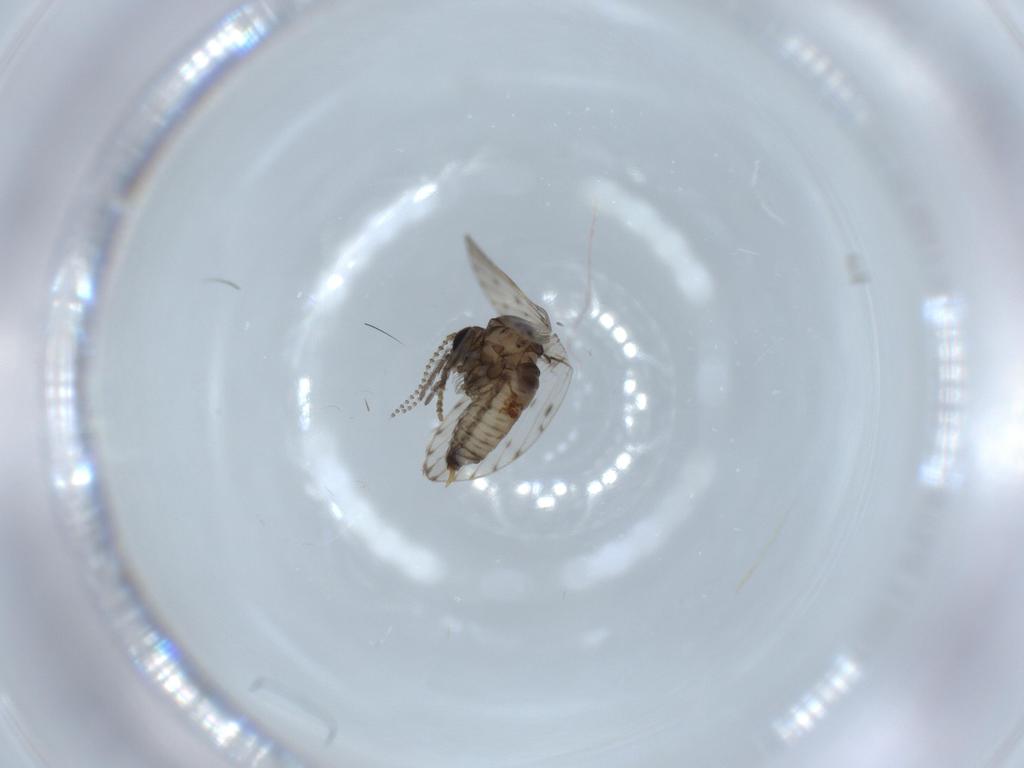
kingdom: Animalia
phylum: Arthropoda
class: Insecta
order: Diptera
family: Psychodidae
